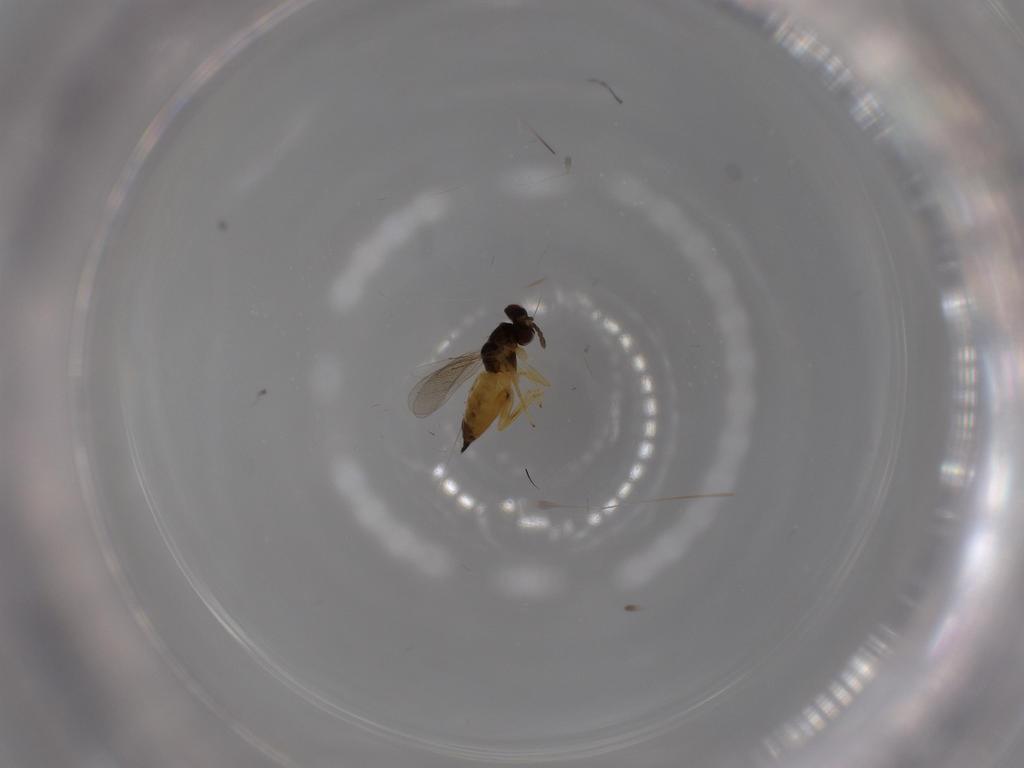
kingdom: Animalia
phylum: Arthropoda
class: Insecta
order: Hymenoptera
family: Eulophidae
